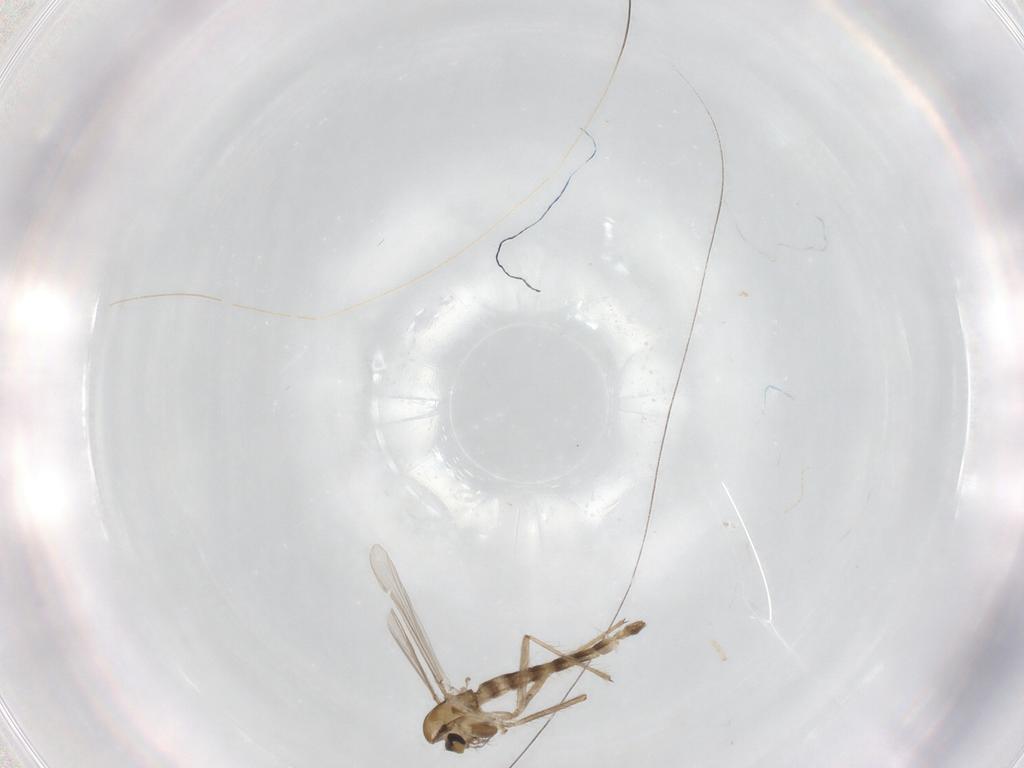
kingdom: Animalia
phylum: Arthropoda
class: Insecta
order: Diptera
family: Chironomidae
